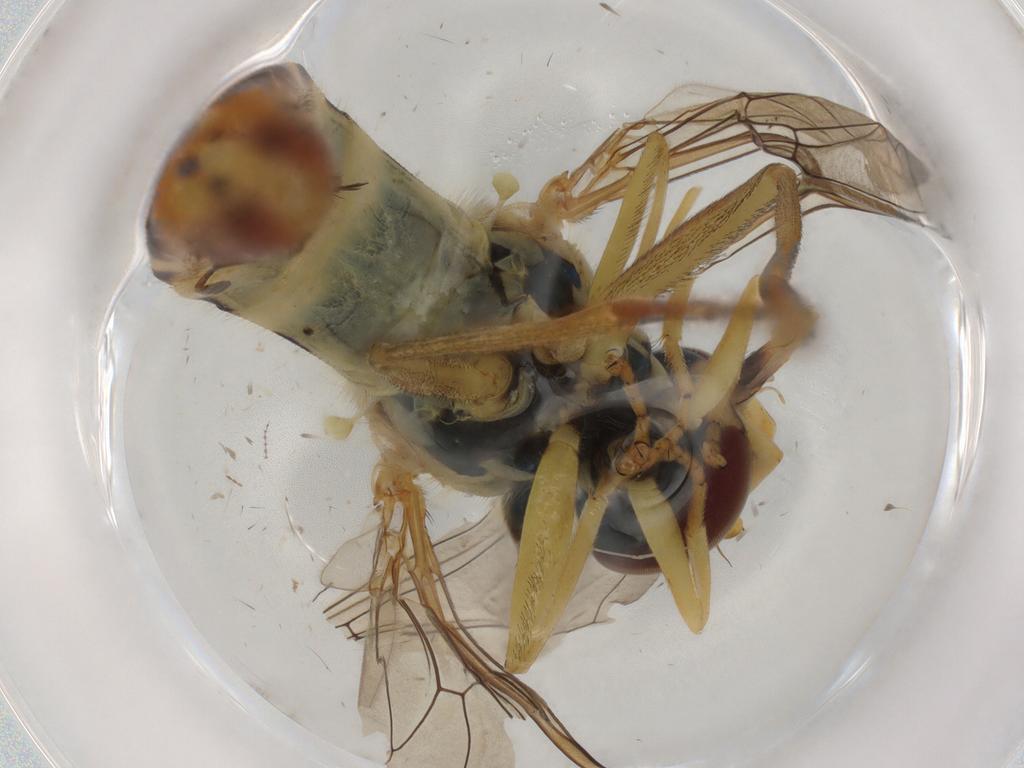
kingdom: Animalia
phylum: Arthropoda
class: Insecta
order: Diptera
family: Syrphidae
